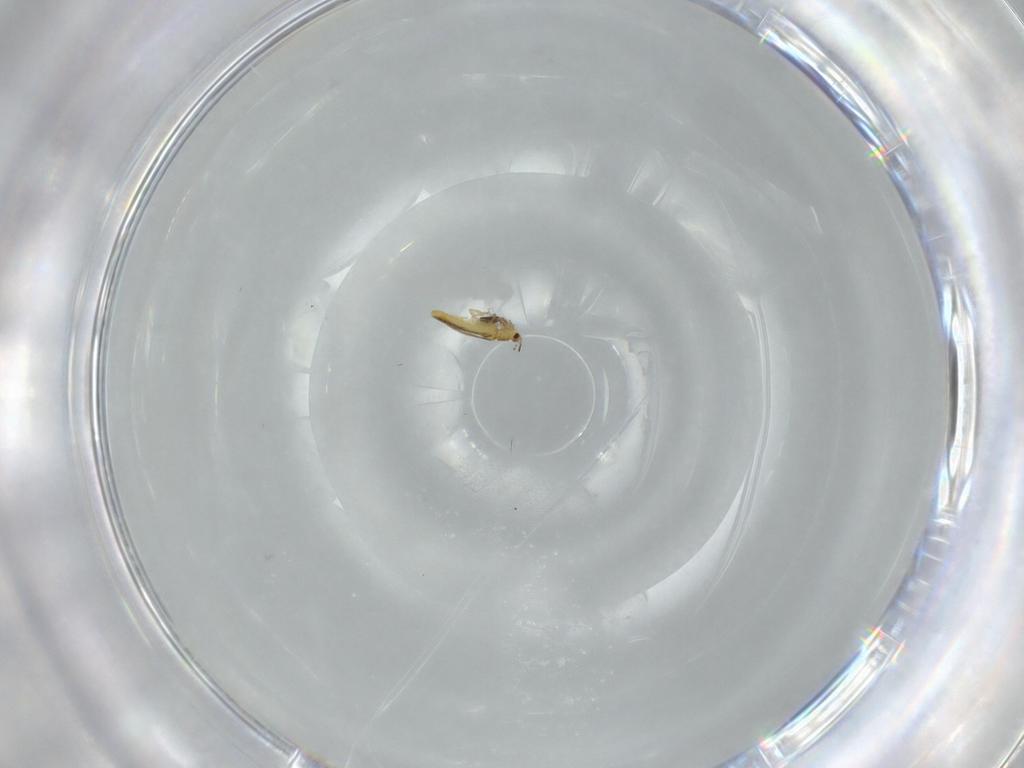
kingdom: Animalia
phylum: Arthropoda
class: Insecta
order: Thysanoptera
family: Thripidae
